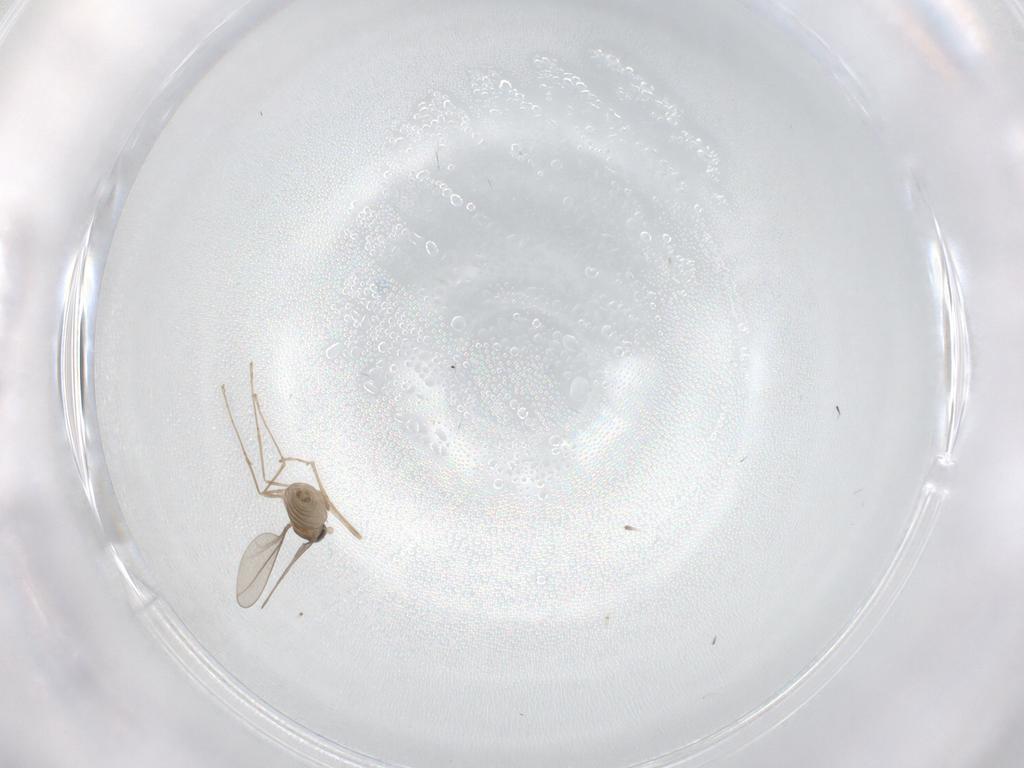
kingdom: Animalia
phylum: Arthropoda
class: Insecta
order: Diptera
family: Cecidomyiidae
